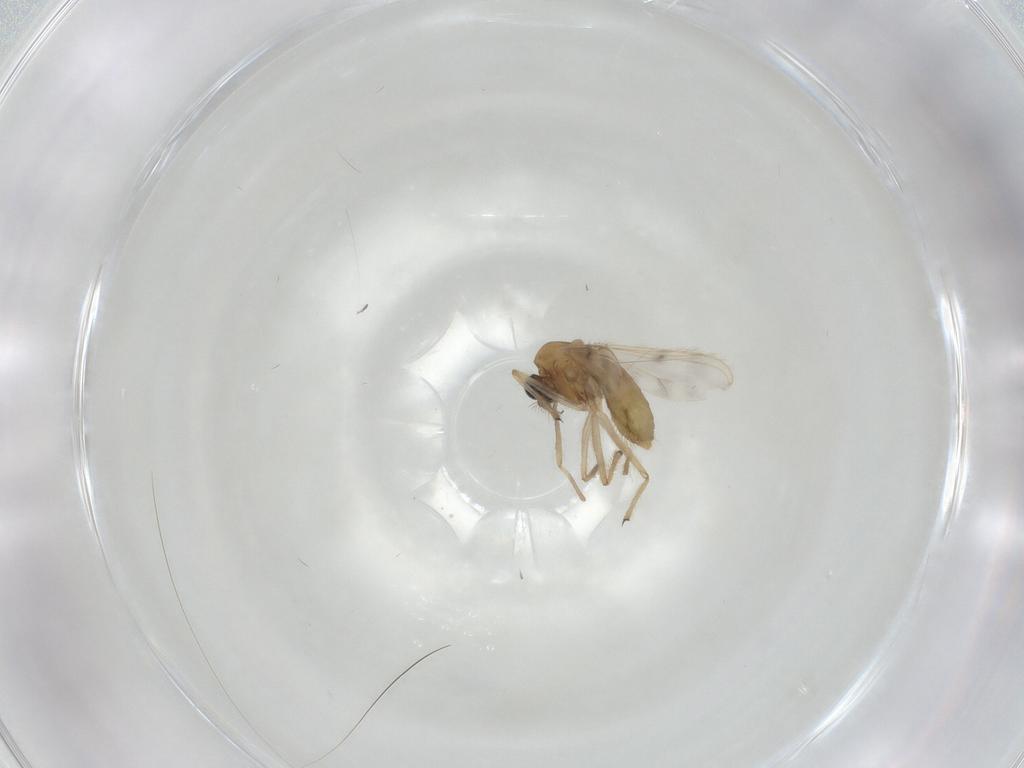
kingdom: Animalia
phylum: Arthropoda
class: Insecta
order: Diptera
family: Chironomidae
